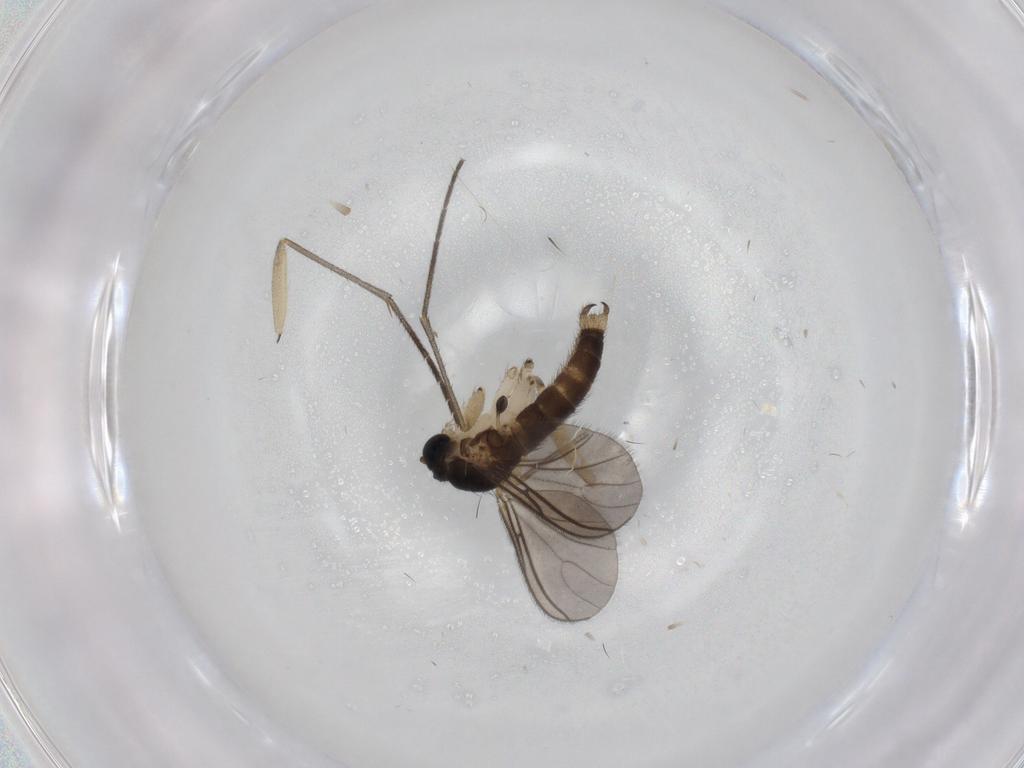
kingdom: Animalia
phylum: Arthropoda
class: Insecta
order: Diptera
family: Sciaridae
